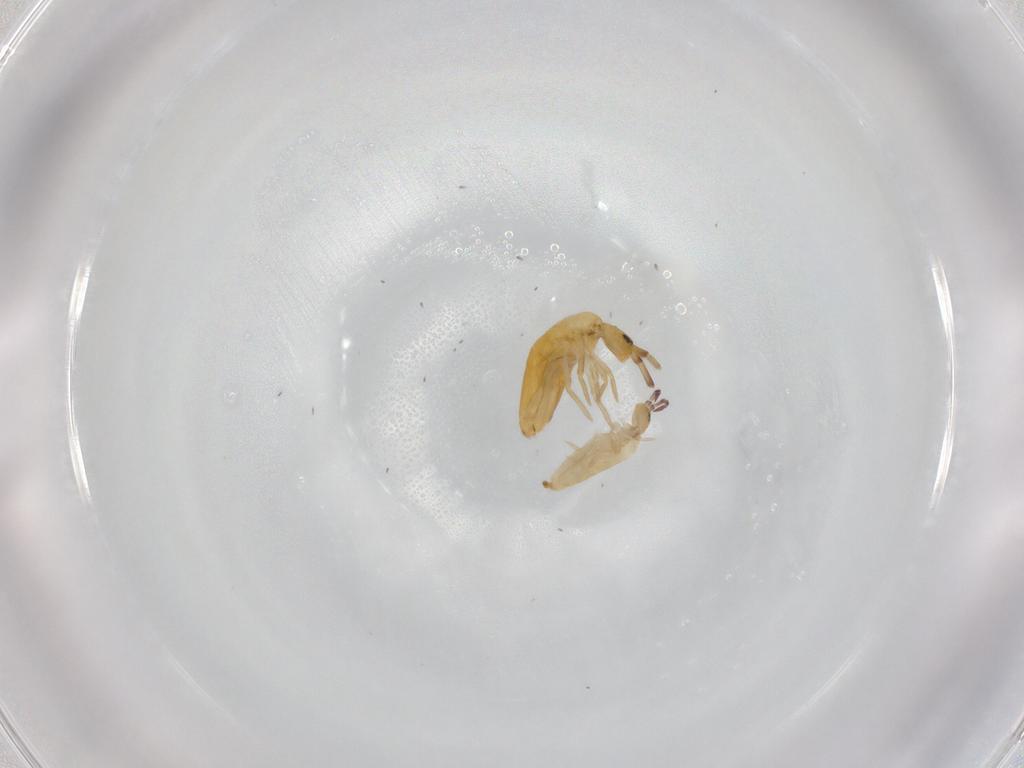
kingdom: Animalia
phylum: Arthropoda
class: Collembola
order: Entomobryomorpha
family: Entomobryidae
